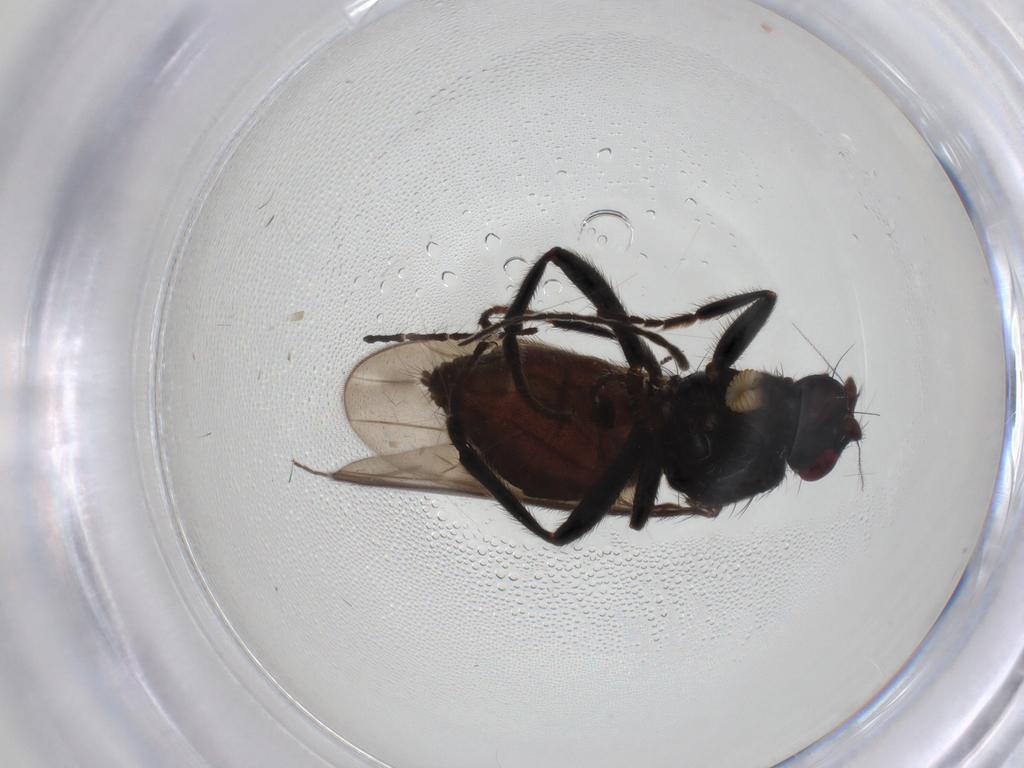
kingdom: Animalia
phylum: Arthropoda
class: Insecta
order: Diptera
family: Sphaeroceridae
